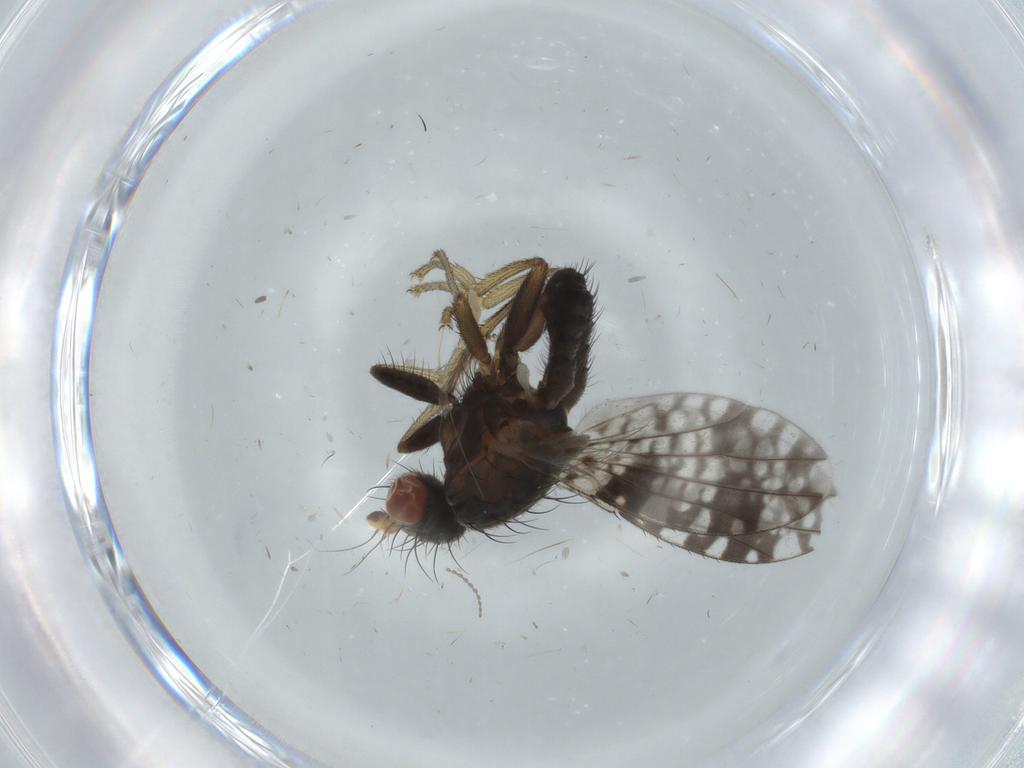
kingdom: Animalia
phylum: Arthropoda
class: Insecta
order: Diptera
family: Tephritidae
